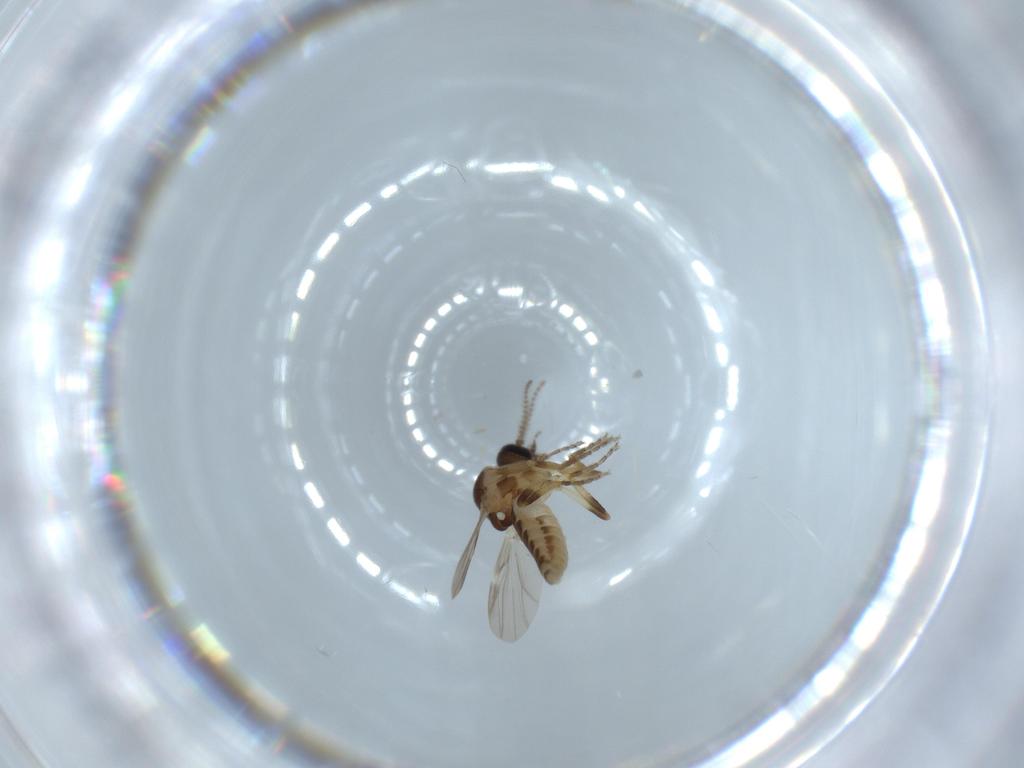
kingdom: Animalia
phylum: Arthropoda
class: Insecta
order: Diptera
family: Ceratopogonidae
